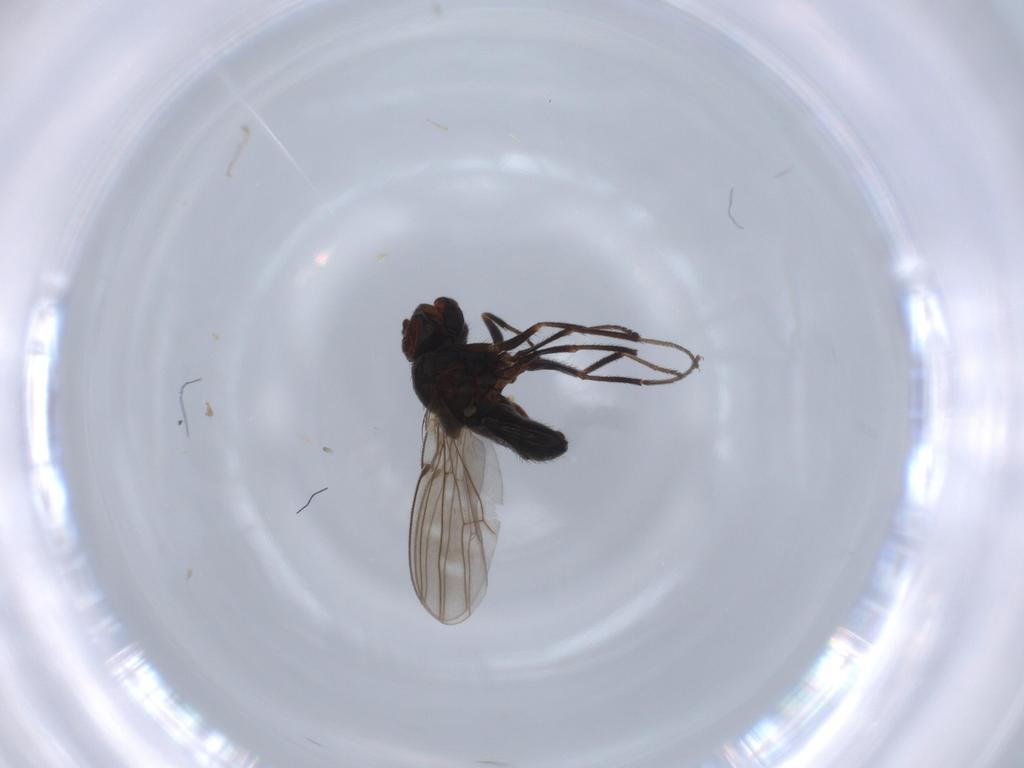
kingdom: Animalia
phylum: Arthropoda
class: Insecta
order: Diptera
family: Ephydridae
